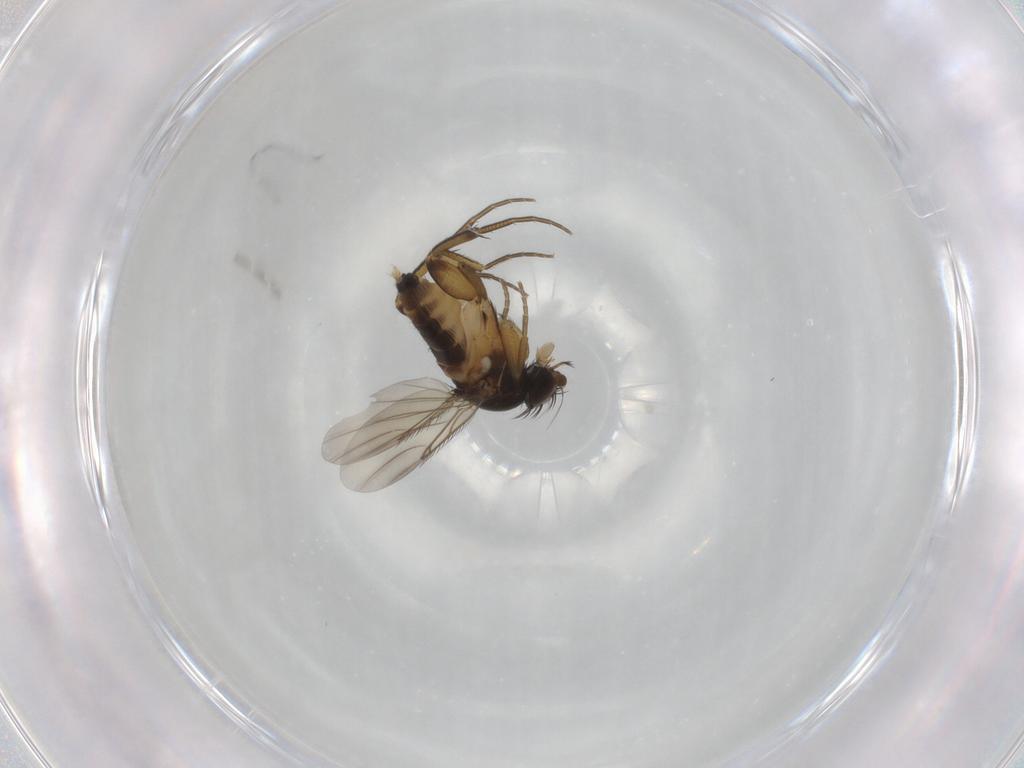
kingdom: Animalia
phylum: Arthropoda
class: Insecta
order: Diptera
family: Phoridae
